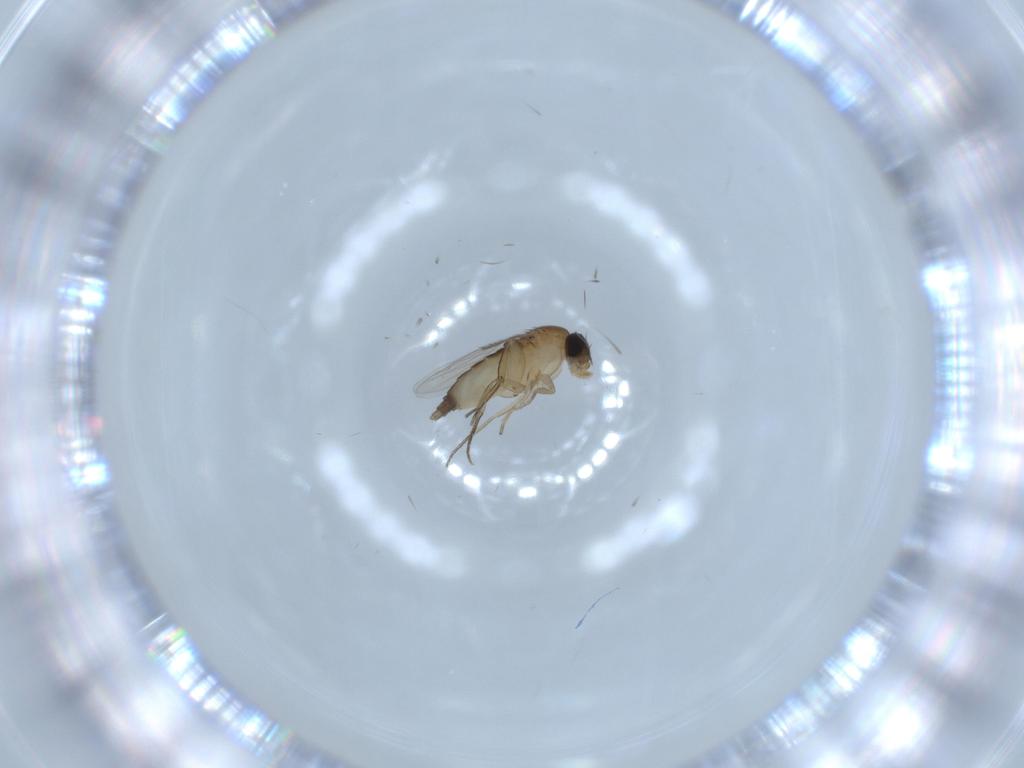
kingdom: Animalia
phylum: Arthropoda
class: Insecta
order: Diptera
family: Phoridae
